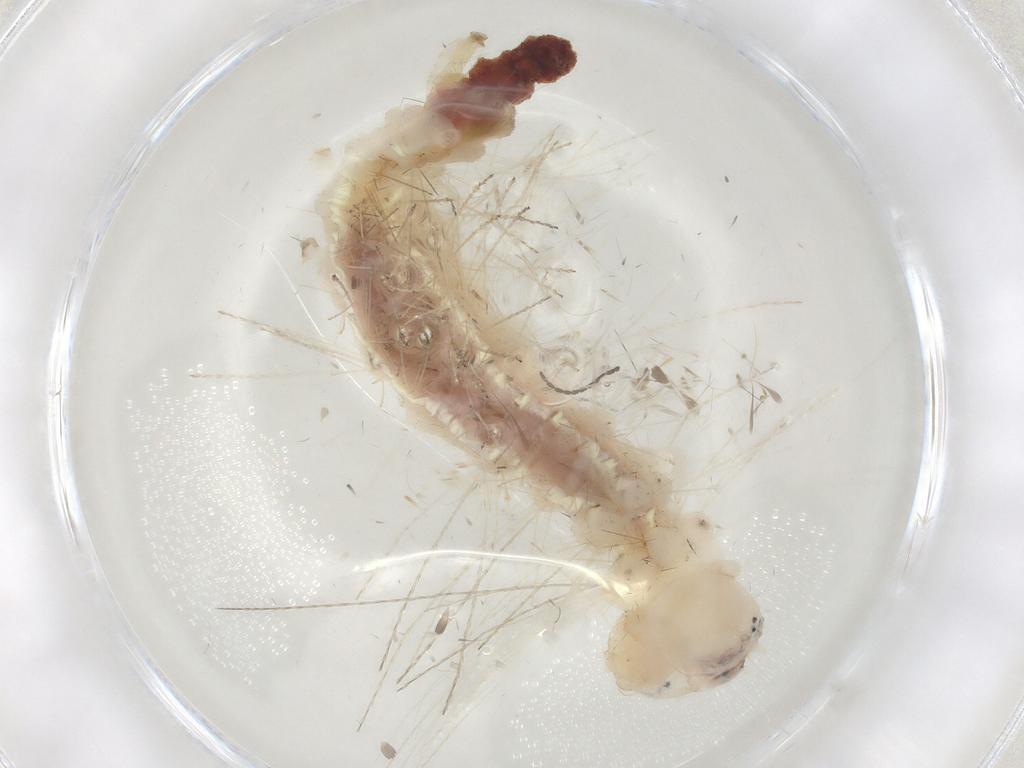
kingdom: Animalia
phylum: Arthropoda
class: Insecta
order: Lepidoptera
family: Erebidae
